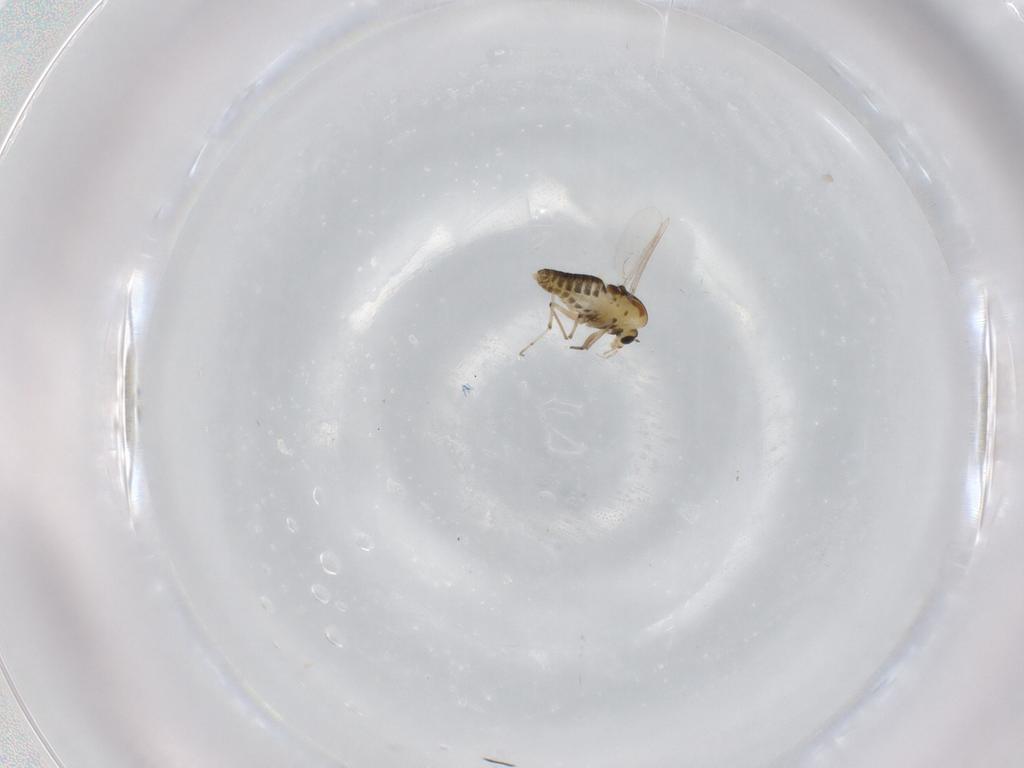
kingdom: Animalia
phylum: Arthropoda
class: Insecta
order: Diptera
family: Chironomidae
